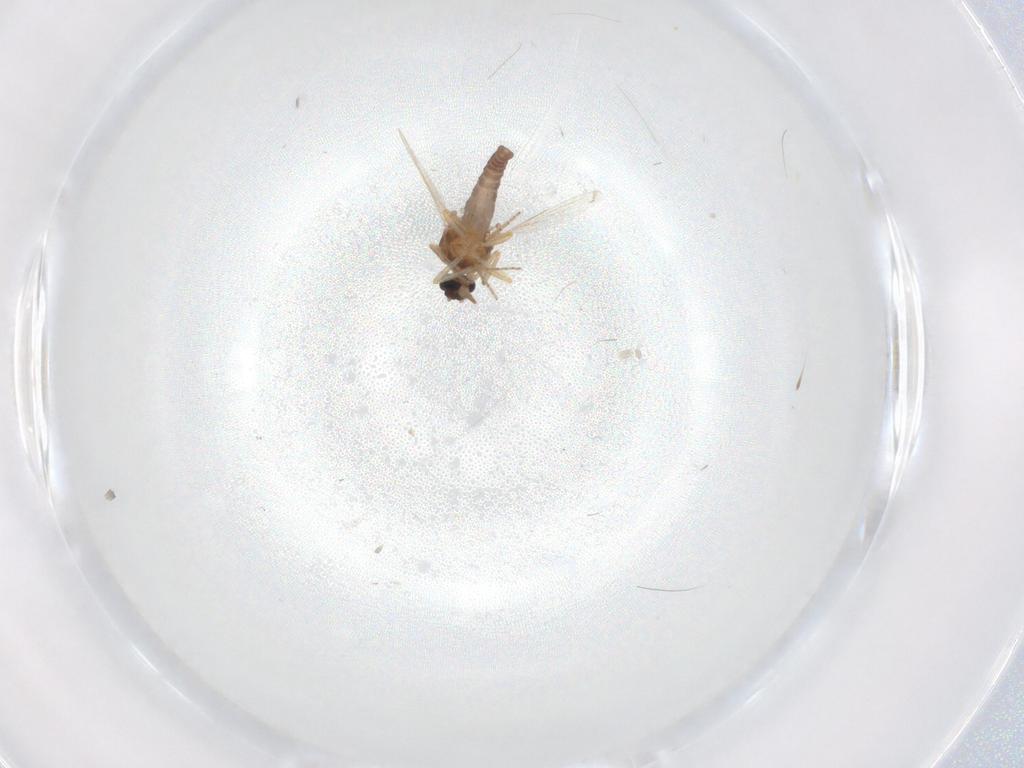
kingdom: Animalia
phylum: Arthropoda
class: Insecta
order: Diptera
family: Ceratopogonidae
